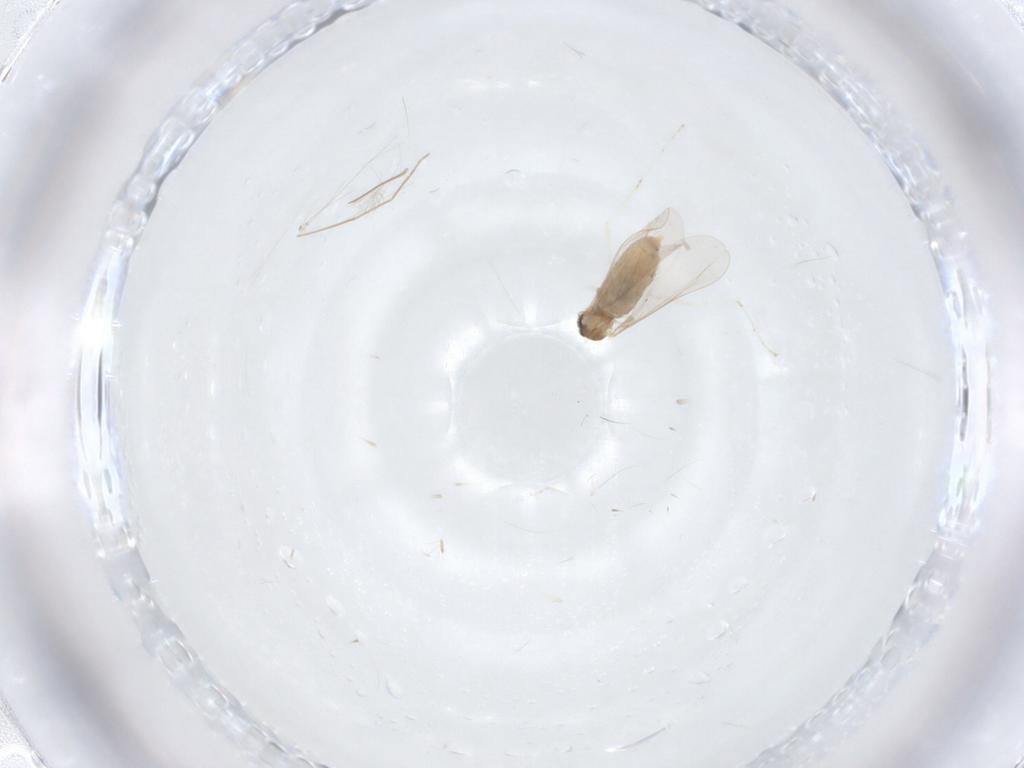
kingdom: Animalia
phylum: Arthropoda
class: Insecta
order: Diptera
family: Cecidomyiidae
